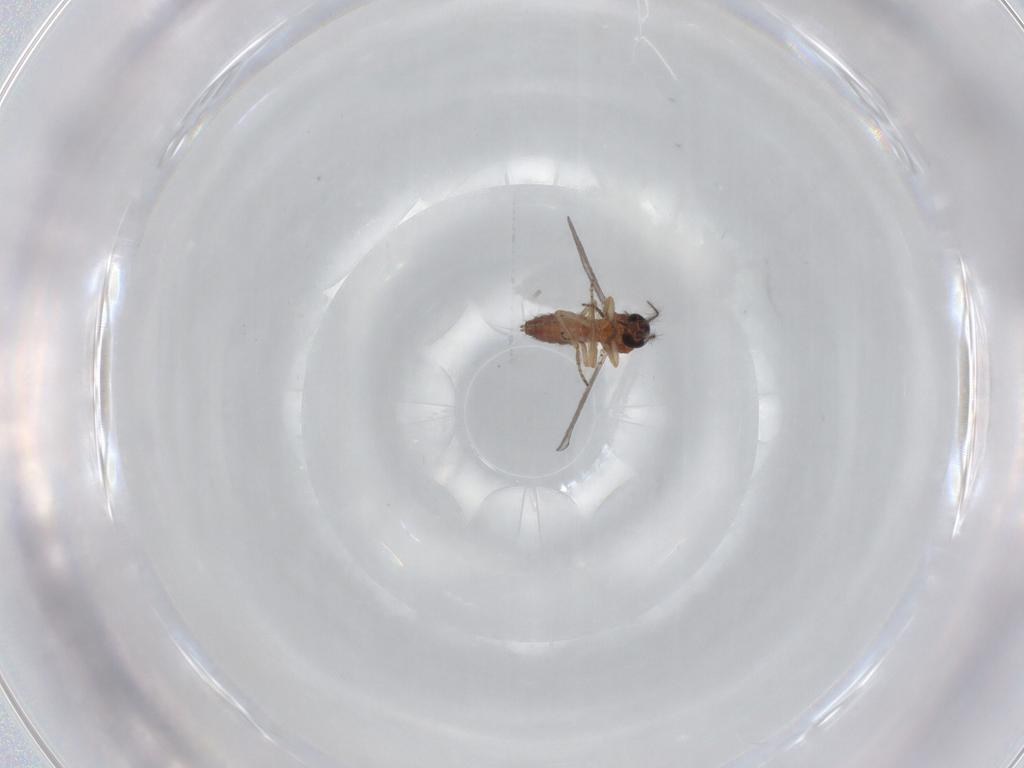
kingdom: Animalia
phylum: Arthropoda
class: Insecta
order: Diptera
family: Ceratopogonidae
